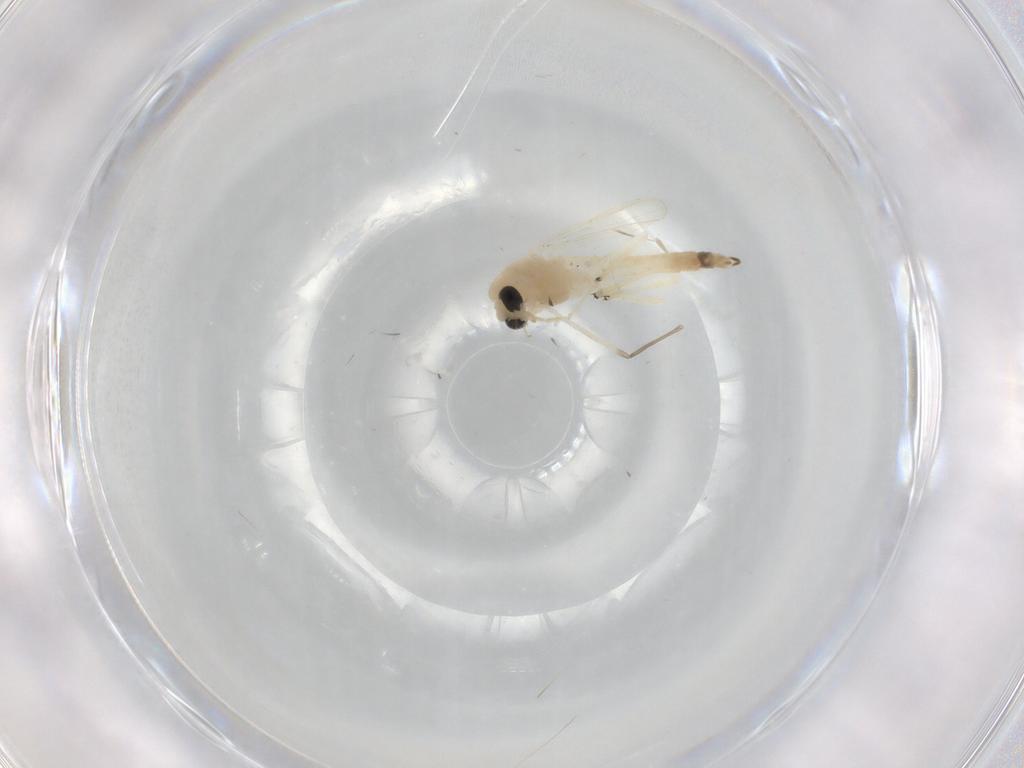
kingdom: Animalia
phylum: Arthropoda
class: Insecta
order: Diptera
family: Chironomidae
